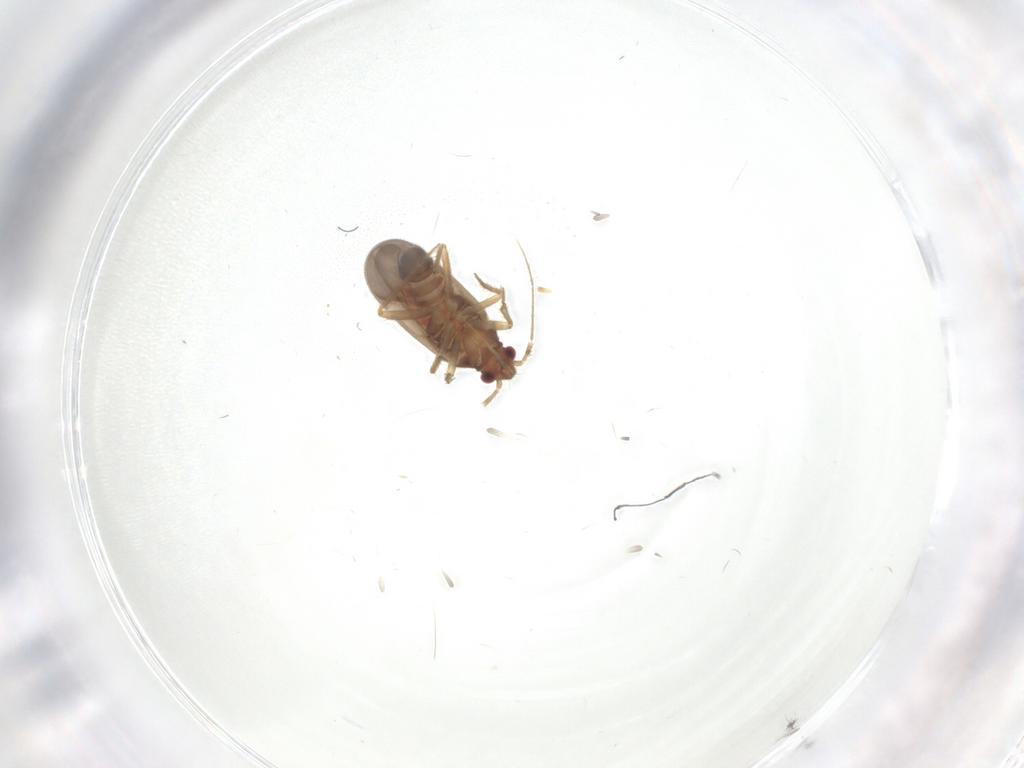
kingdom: Animalia
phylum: Arthropoda
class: Insecta
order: Hemiptera
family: Ceratocombidae
